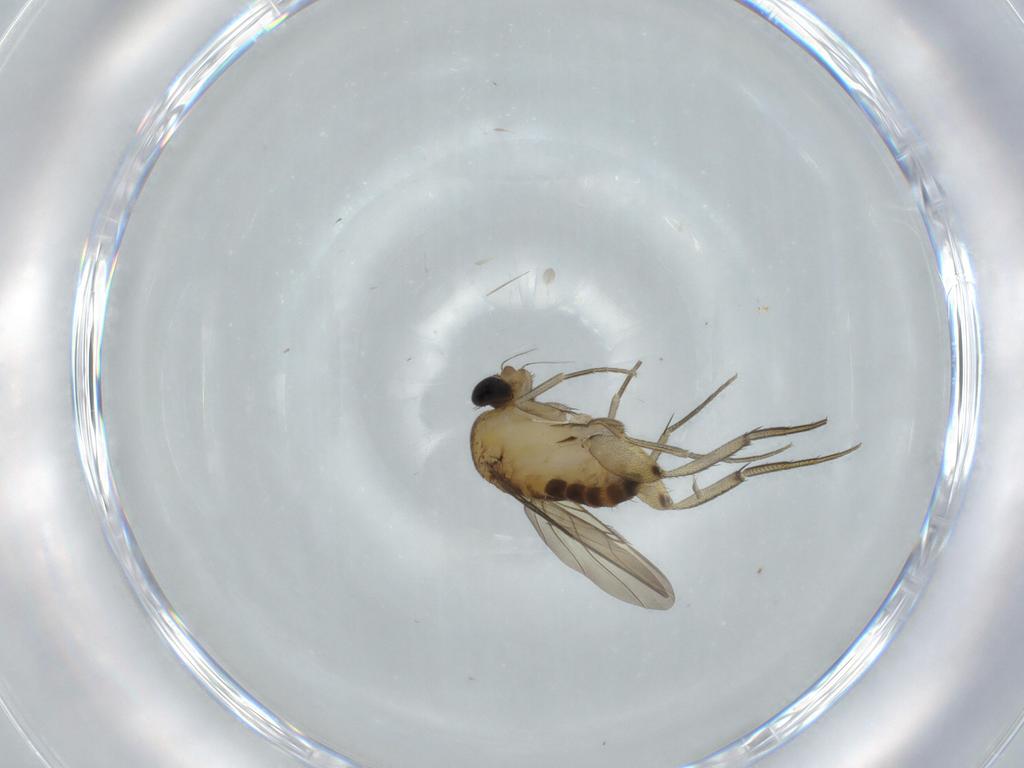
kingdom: Animalia
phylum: Arthropoda
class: Insecta
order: Diptera
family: Phoridae
